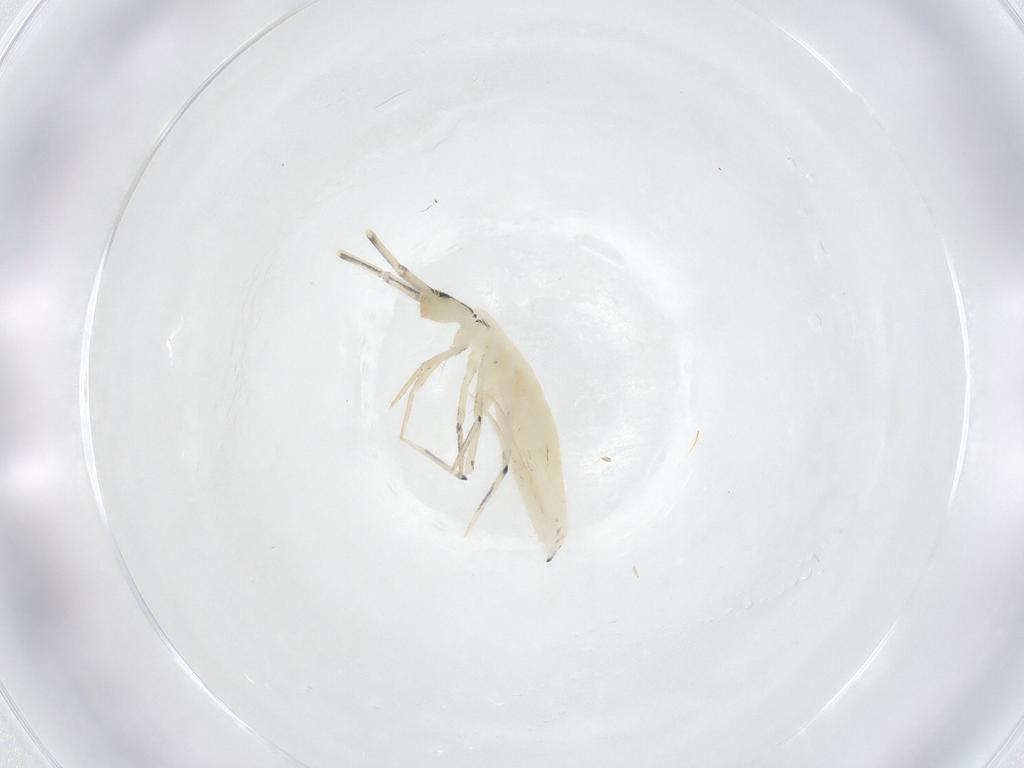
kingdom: Animalia
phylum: Arthropoda
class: Collembola
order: Entomobryomorpha
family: Entomobryidae
